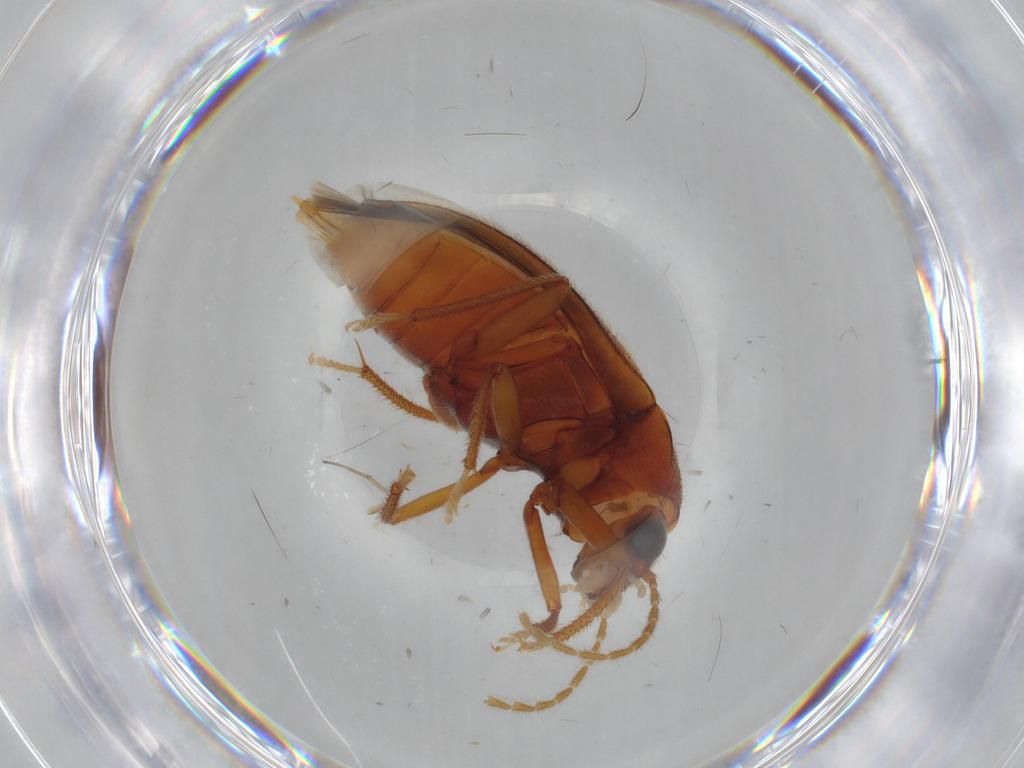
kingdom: Animalia
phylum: Arthropoda
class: Insecta
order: Coleoptera
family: Ptilodactylidae
